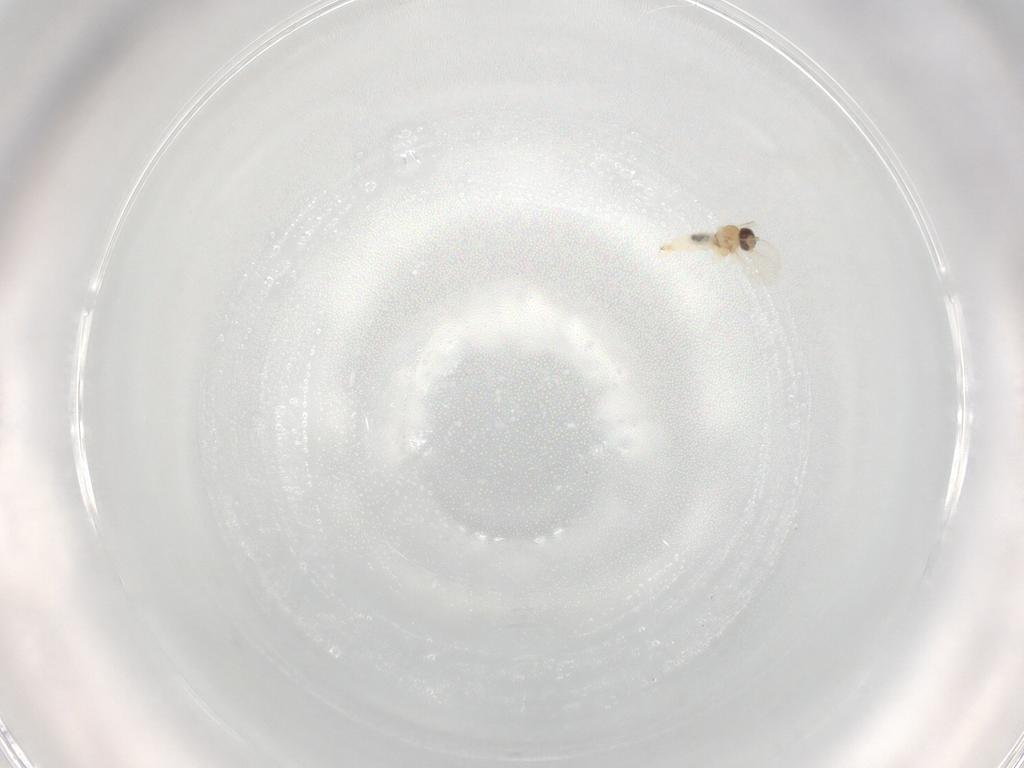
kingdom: Animalia
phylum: Arthropoda
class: Insecta
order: Diptera
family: Cecidomyiidae
